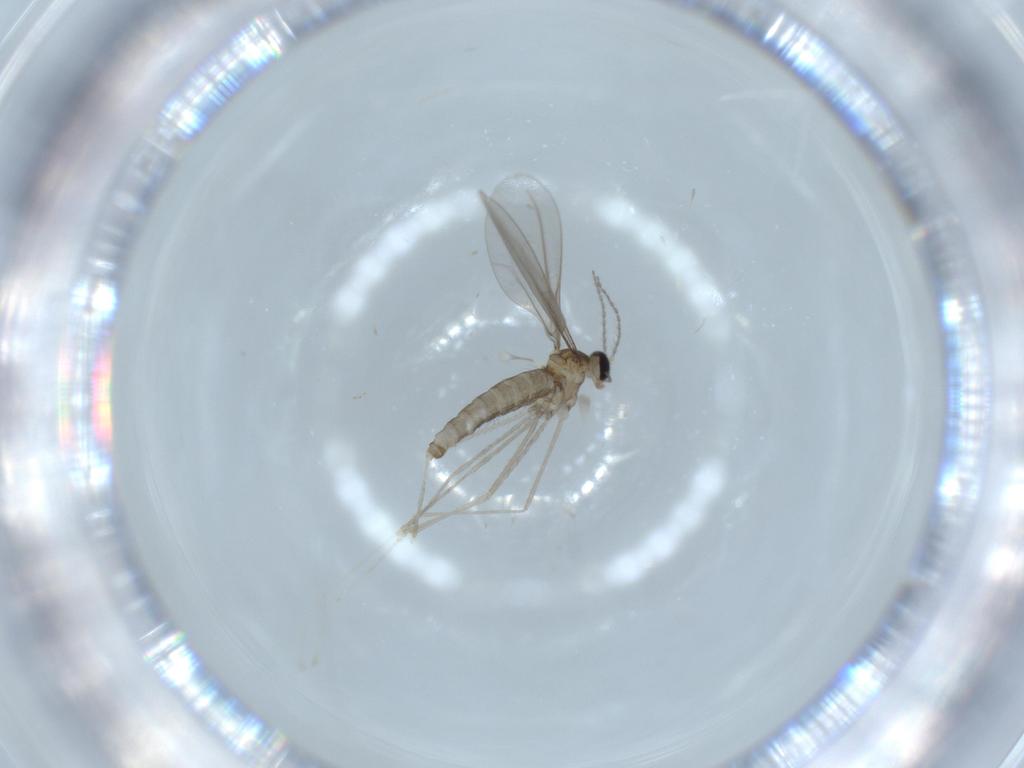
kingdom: Animalia
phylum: Arthropoda
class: Insecta
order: Diptera
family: Cecidomyiidae
